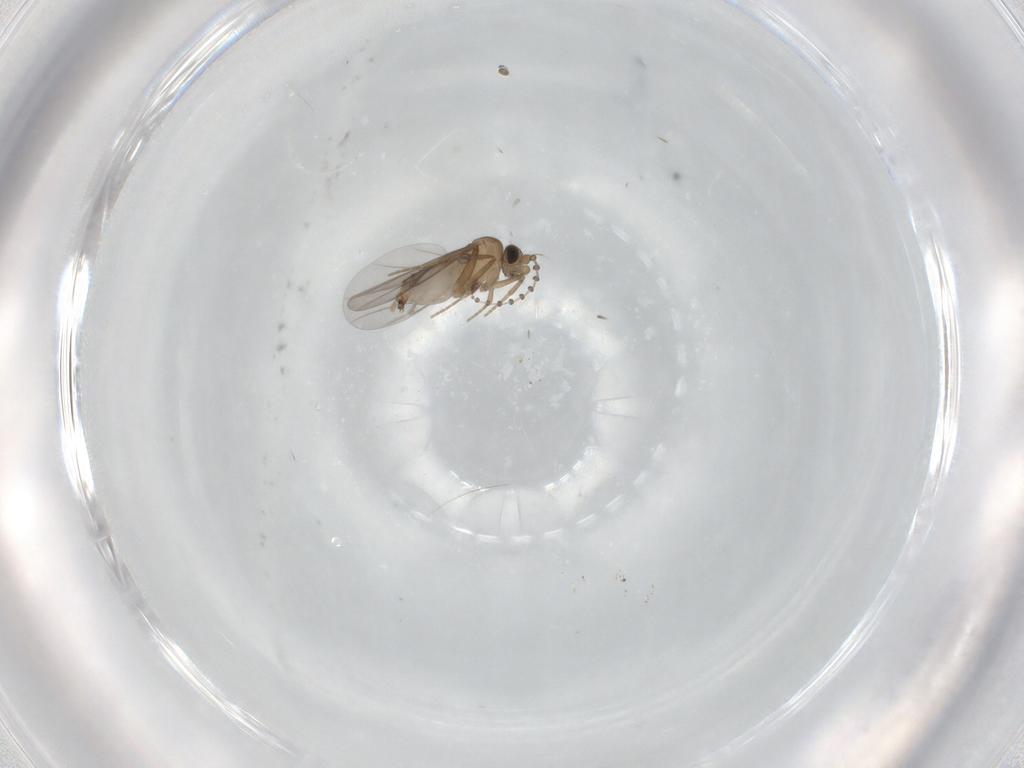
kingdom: Animalia
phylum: Arthropoda
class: Insecta
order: Diptera
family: Psychodidae
